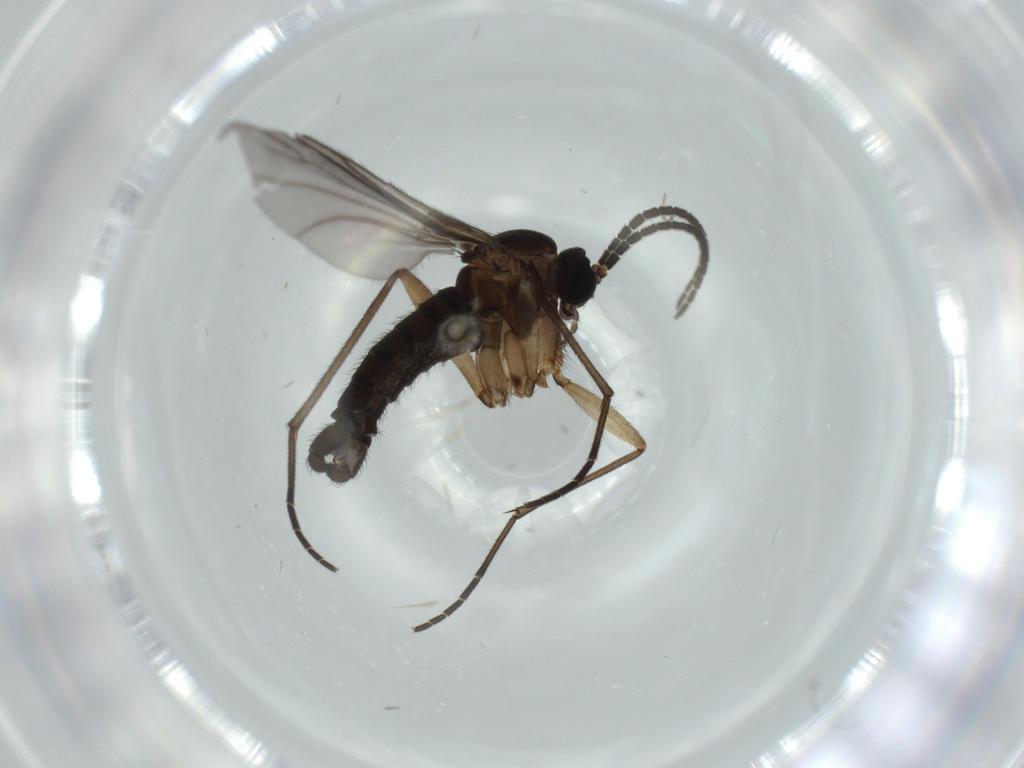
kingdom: Animalia
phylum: Arthropoda
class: Insecta
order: Diptera
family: Sciaridae
